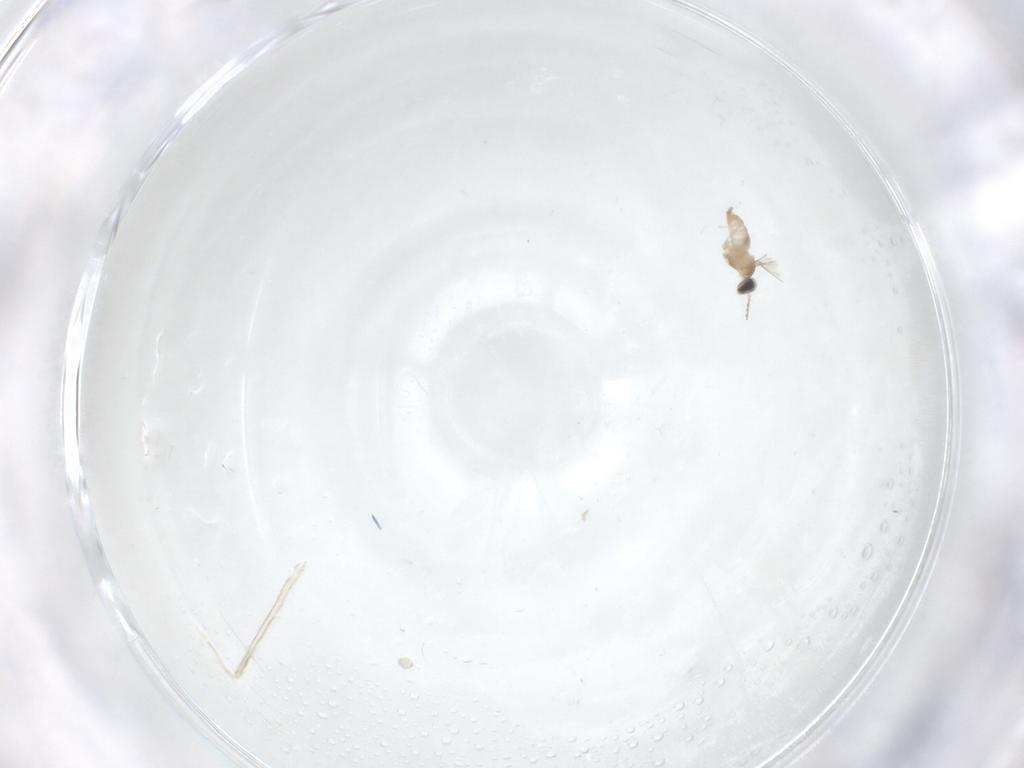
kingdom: Animalia
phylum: Arthropoda
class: Insecta
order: Diptera
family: Cecidomyiidae
